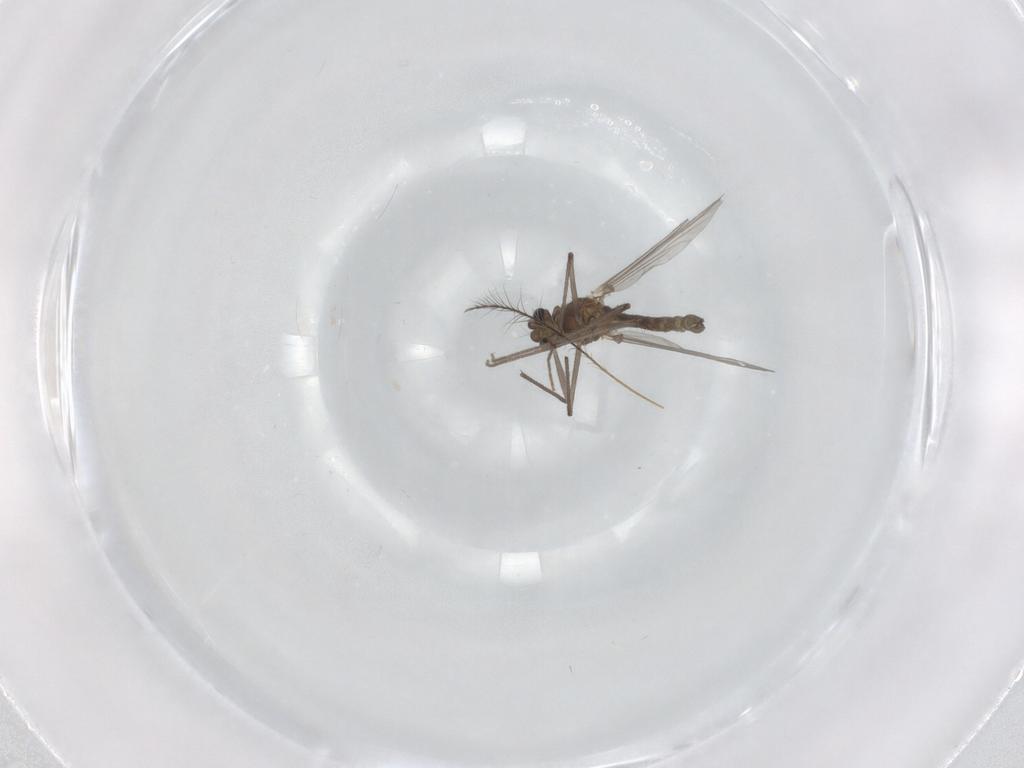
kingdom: Animalia
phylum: Arthropoda
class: Insecta
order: Diptera
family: Chironomidae
